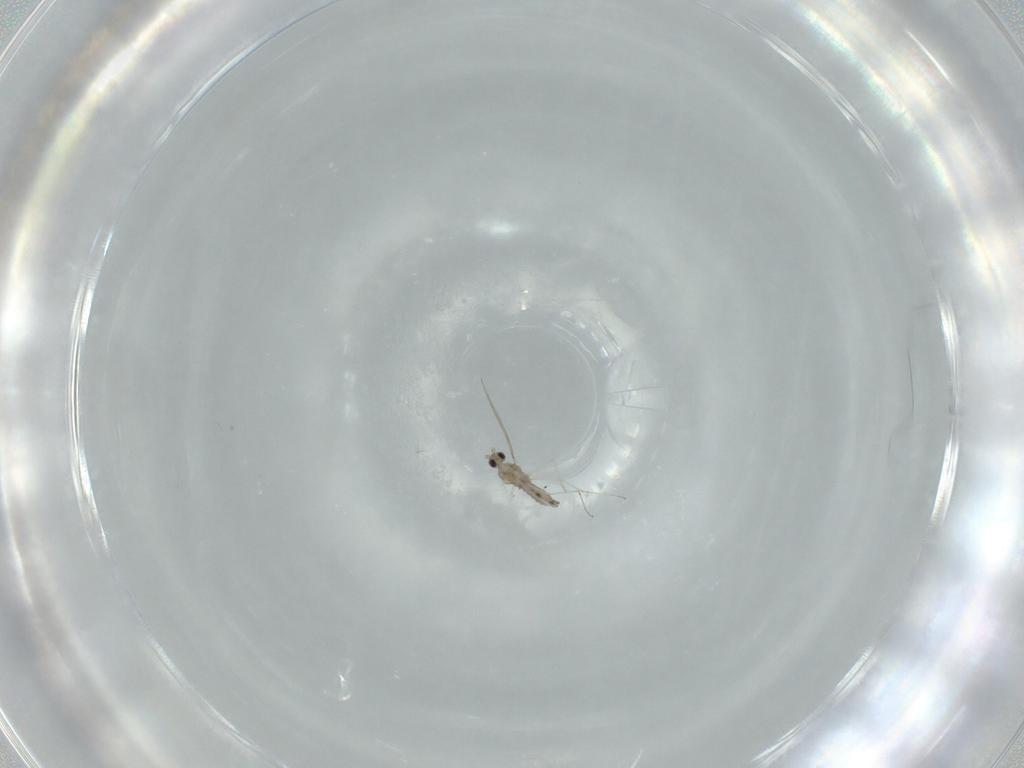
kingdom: Animalia
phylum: Arthropoda
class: Insecta
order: Diptera
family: Cecidomyiidae
